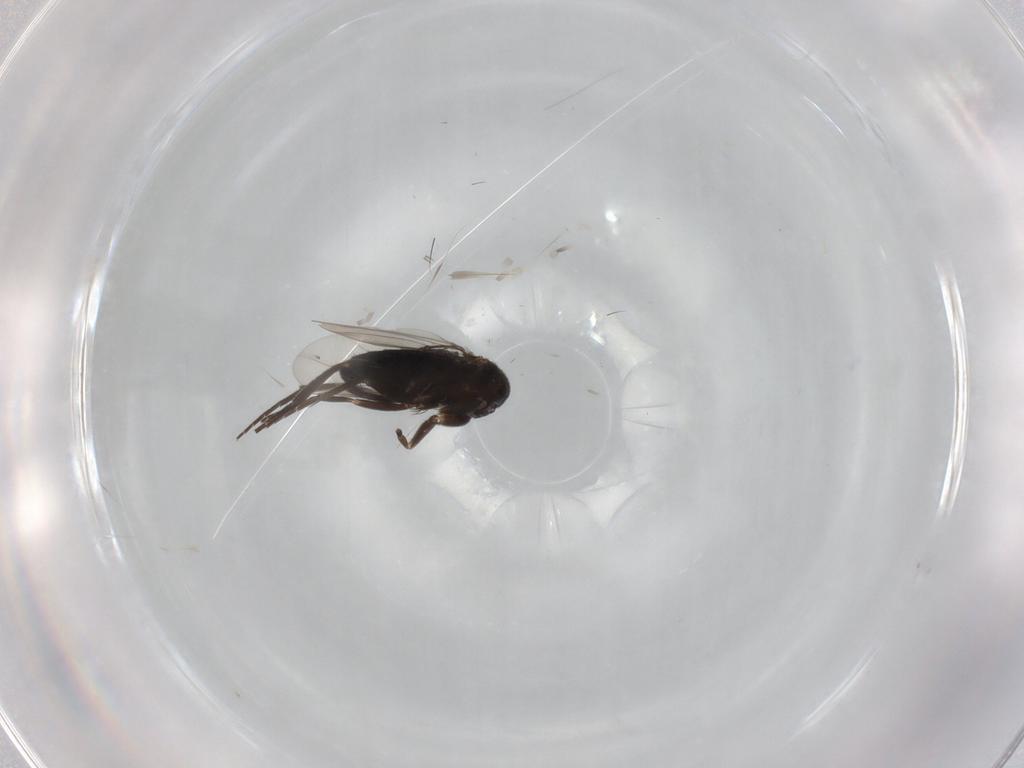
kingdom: Animalia
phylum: Arthropoda
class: Insecta
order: Diptera
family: Phoridae
